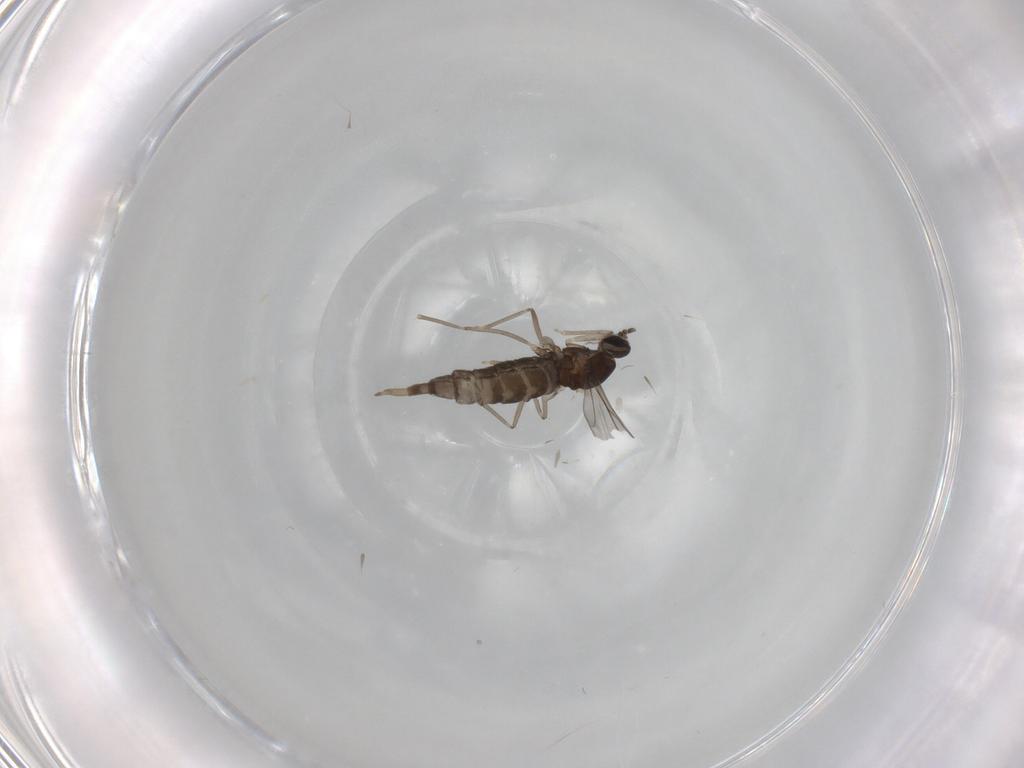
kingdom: Animalia
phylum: Arthropoda
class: Insecta
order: Diptera
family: Cecidomyiidae
